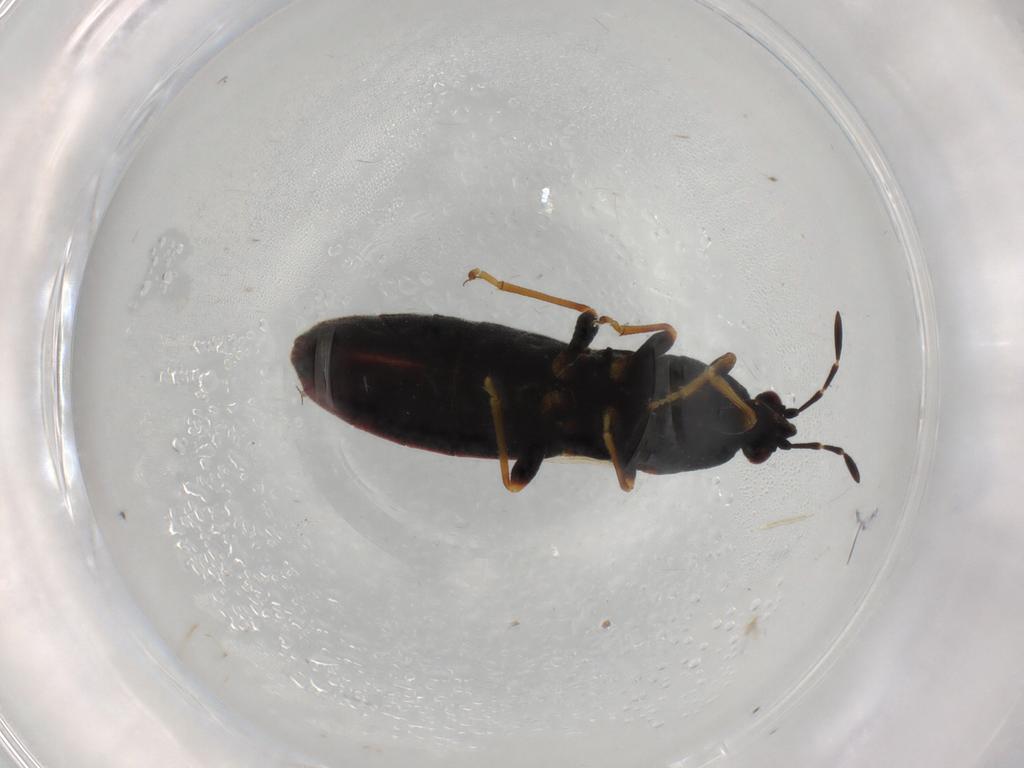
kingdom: Animalia
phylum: Arthropoda
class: Insecta
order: Hemiptera
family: Blissidae
